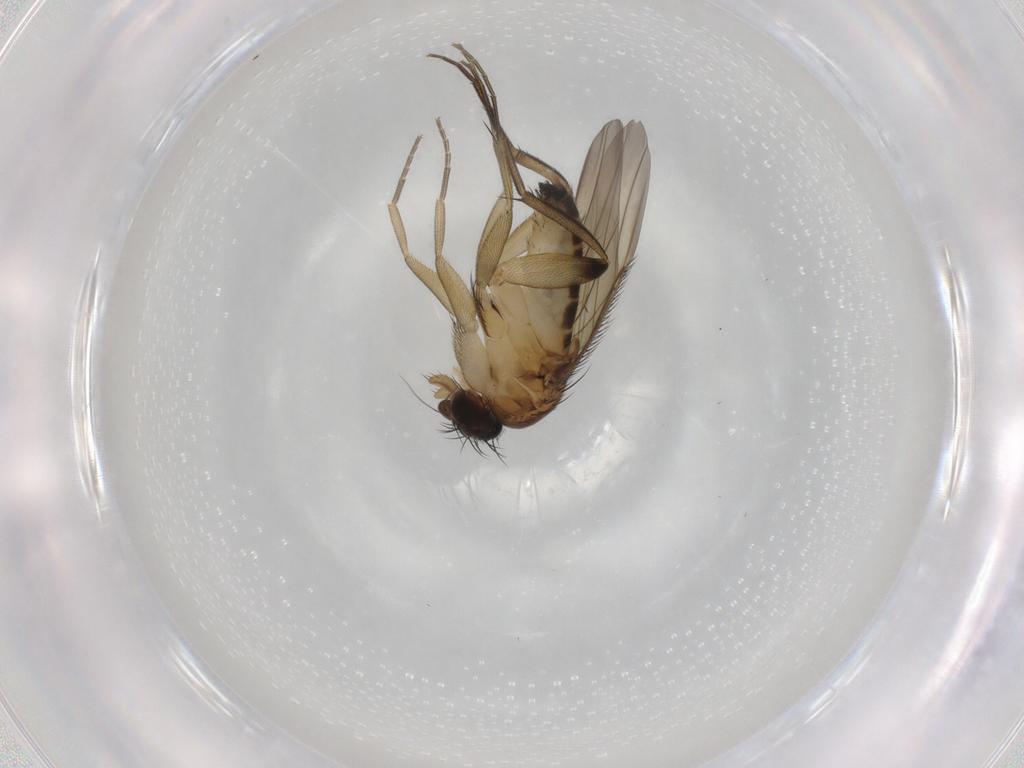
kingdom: Animalia
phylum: Arthropoda
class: Insecta
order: Diptera
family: Phoridae
